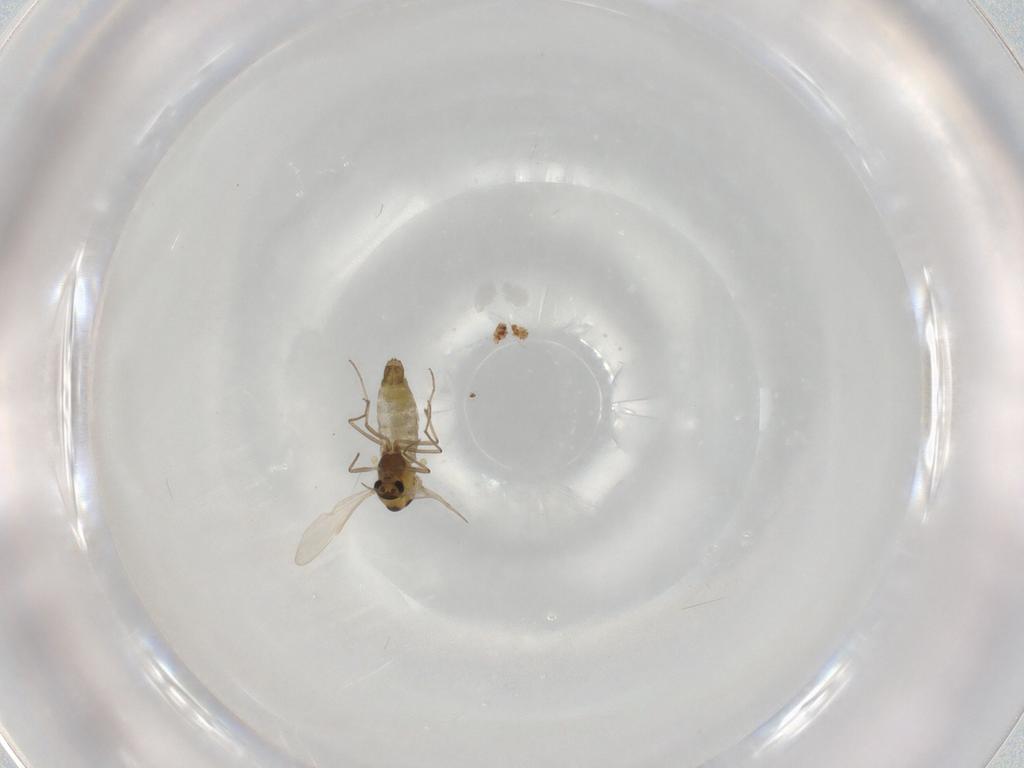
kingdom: Animalia
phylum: Arthropoda
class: Insecta
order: Diptera
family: Chironomidae
